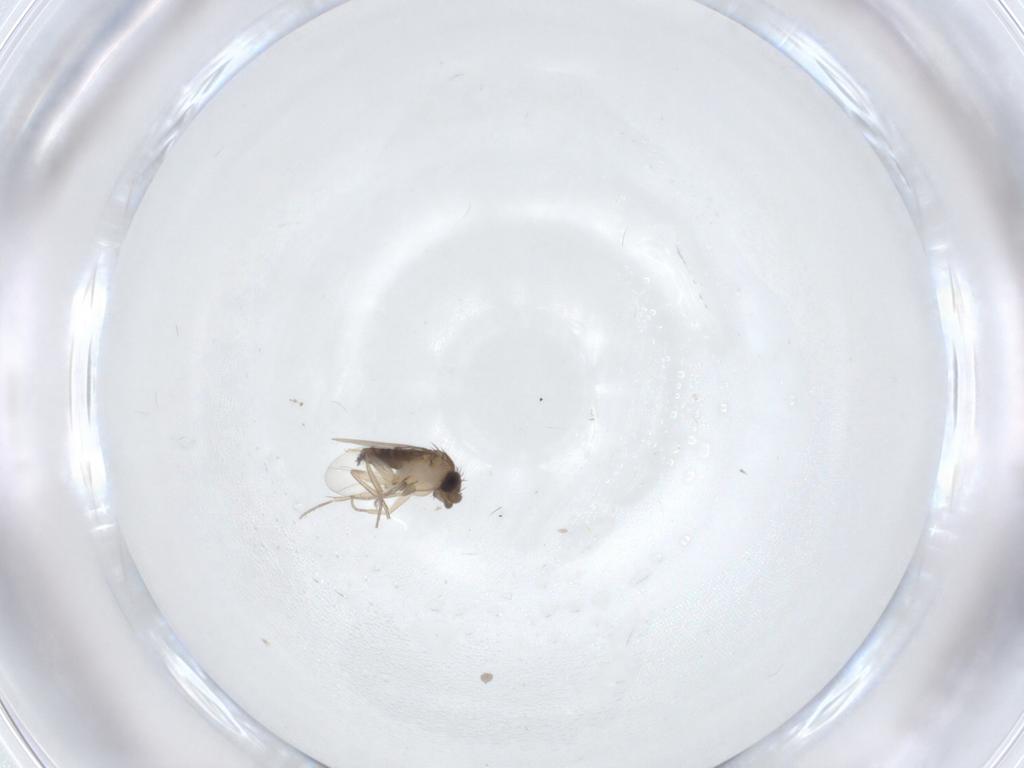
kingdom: Animalia
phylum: Arthropoda
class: Insecta
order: Diptera
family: Phoridae
